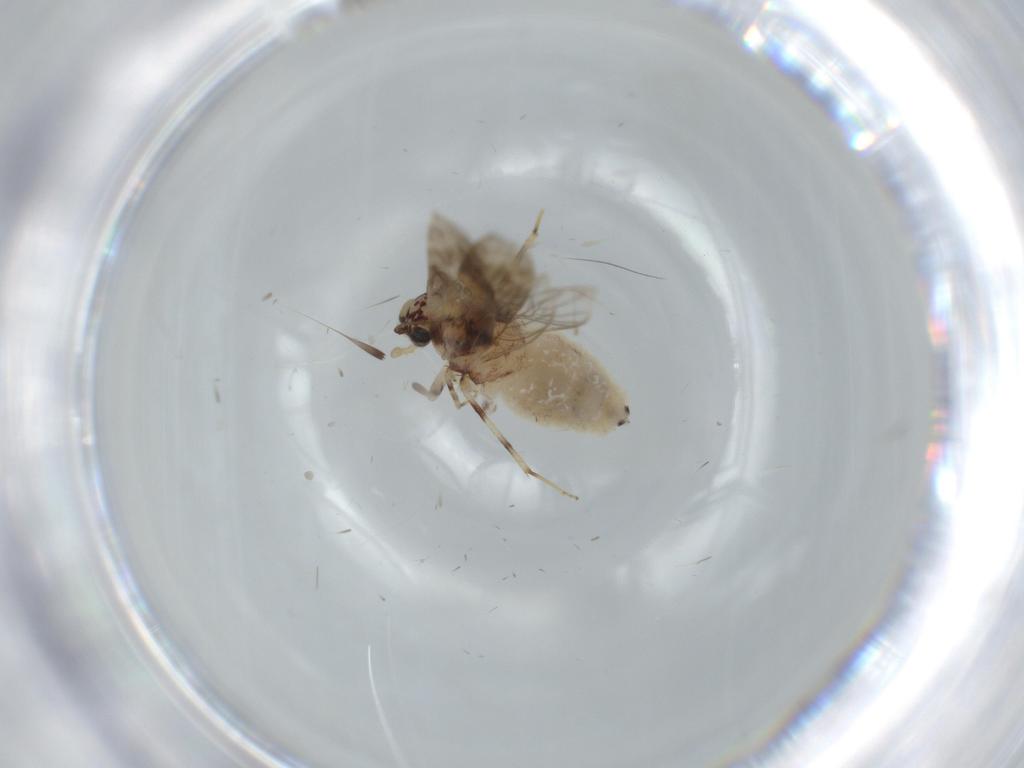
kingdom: Animalia
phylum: Arthropoda
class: Insecta
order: Psocodea
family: Lepidopsocidae
